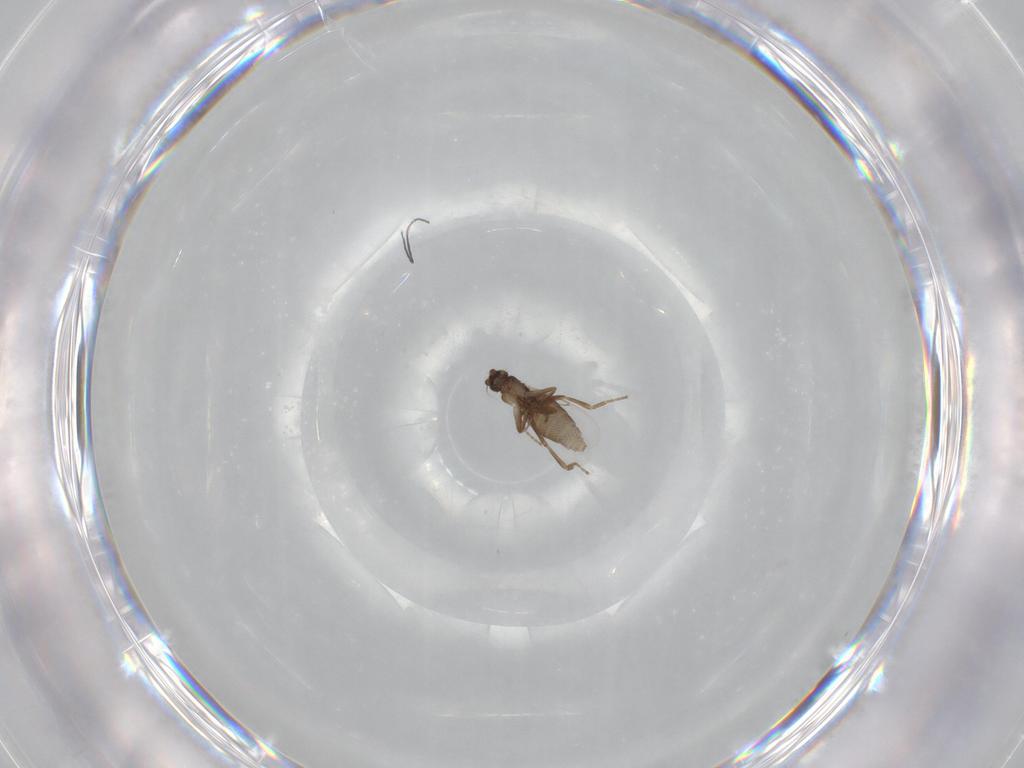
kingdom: Animalia
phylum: Arthropoda
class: Insecta
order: Diptera
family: Phoridae
